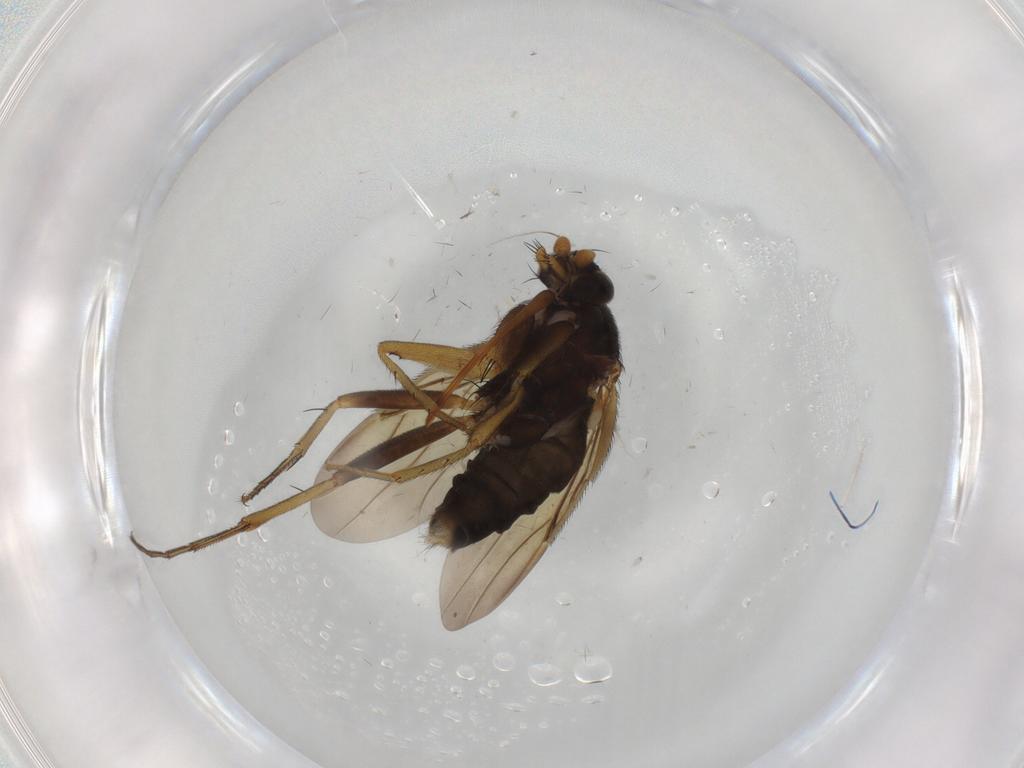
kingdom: Animalia
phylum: Arthropoda
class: Insecta
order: Diptera
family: Phoridae
